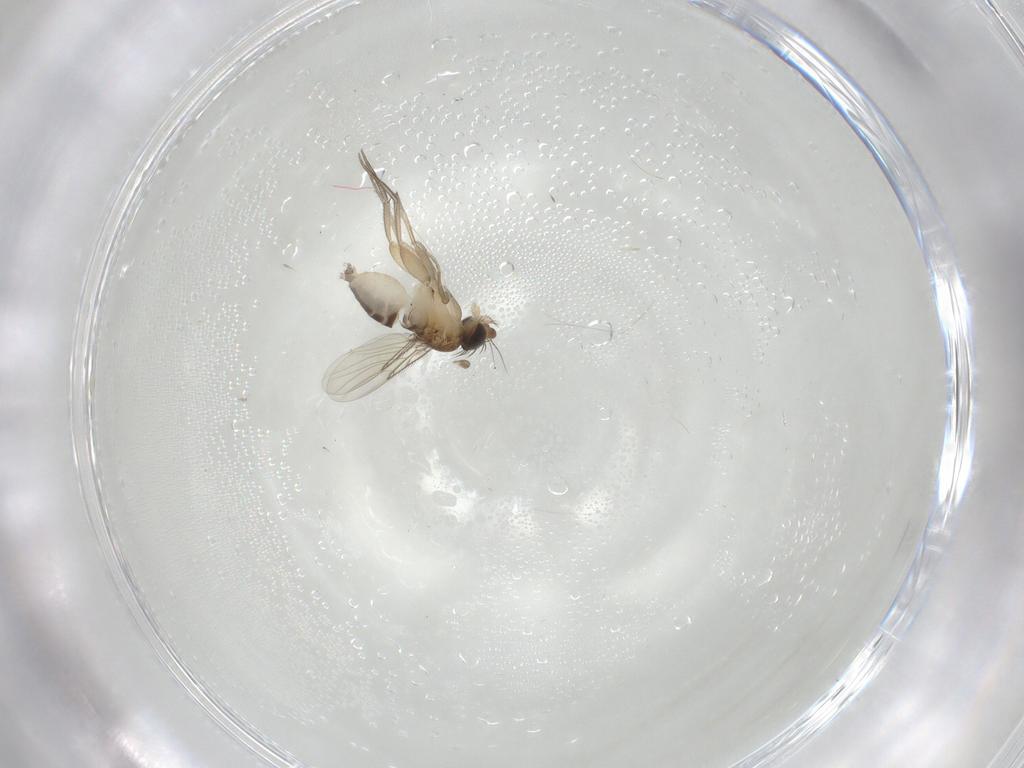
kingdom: Animalia
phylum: Arthropoda
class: Insecta
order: Diptera
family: Phoridae
